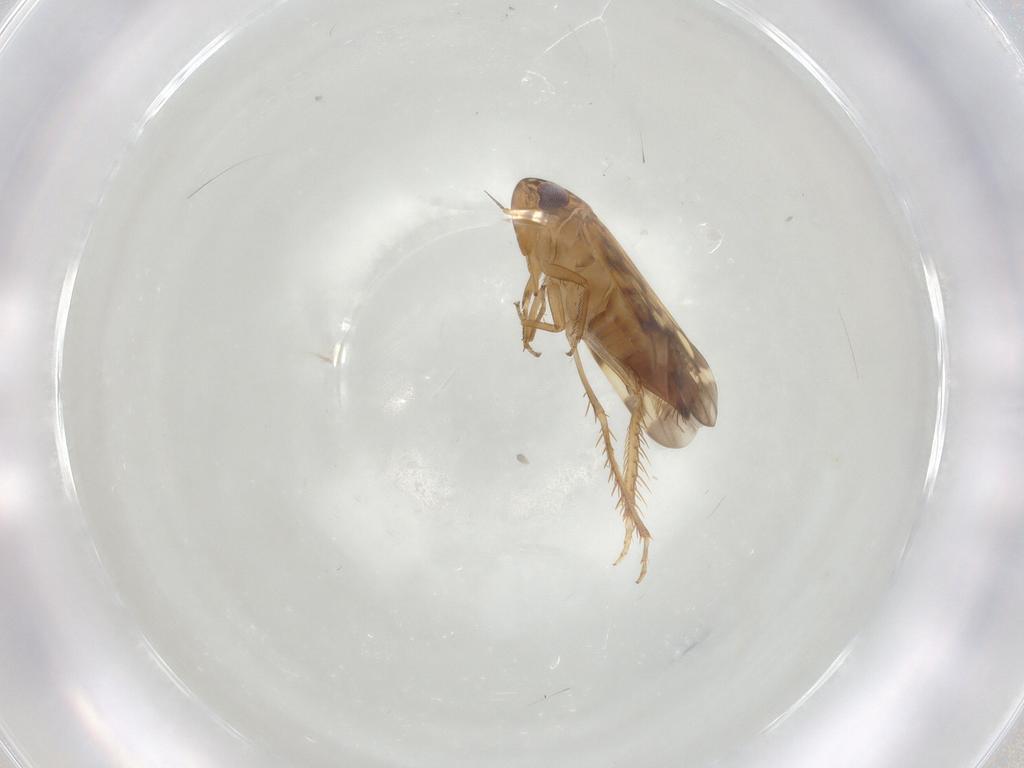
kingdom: Animalia
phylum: Arthropoda
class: Insecta
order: Hemiptera
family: Cicadellidae
